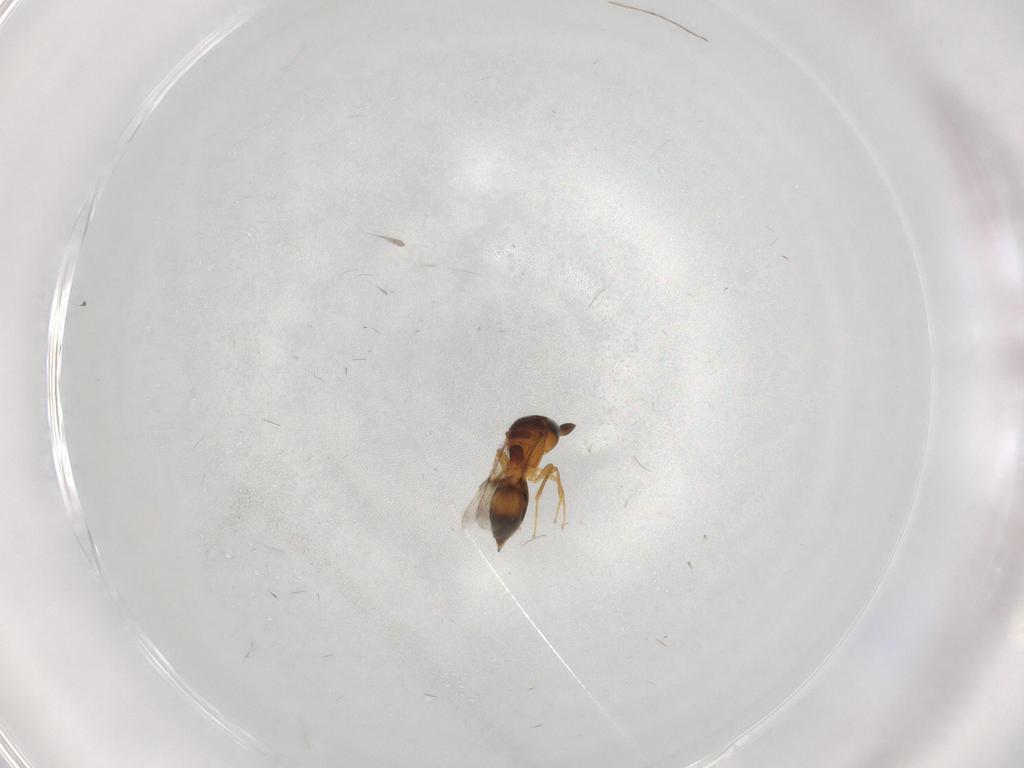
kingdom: Animalia
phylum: Arthropoda
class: Insecta
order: Hymenoptera
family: Scelionidae
